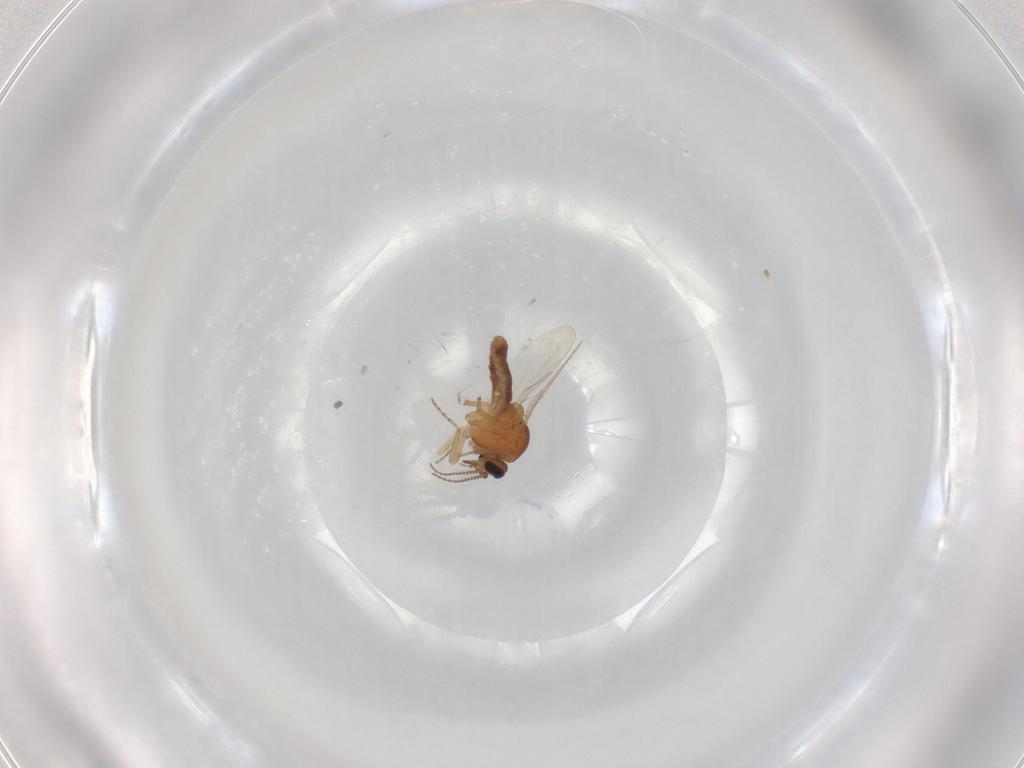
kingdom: Animalia
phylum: Arthropoda
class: Insecta
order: Diptera
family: Ceratopogonidae
